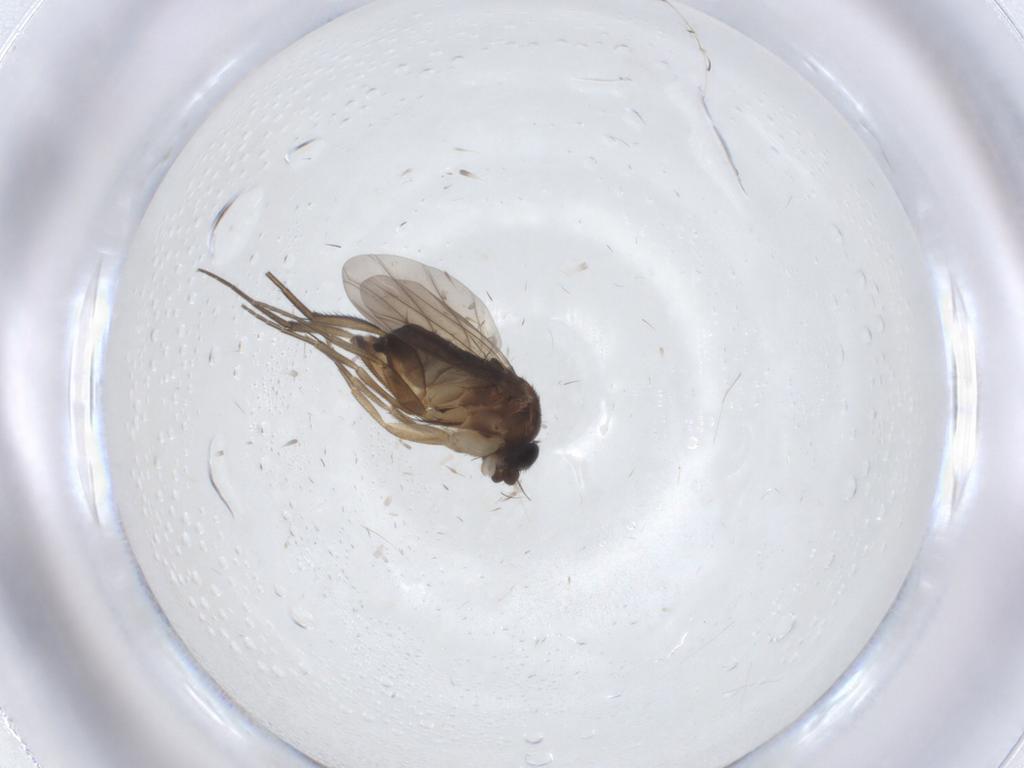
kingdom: Animalia
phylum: Arthropoda
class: Insecta
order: Diptera
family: Phoridae
